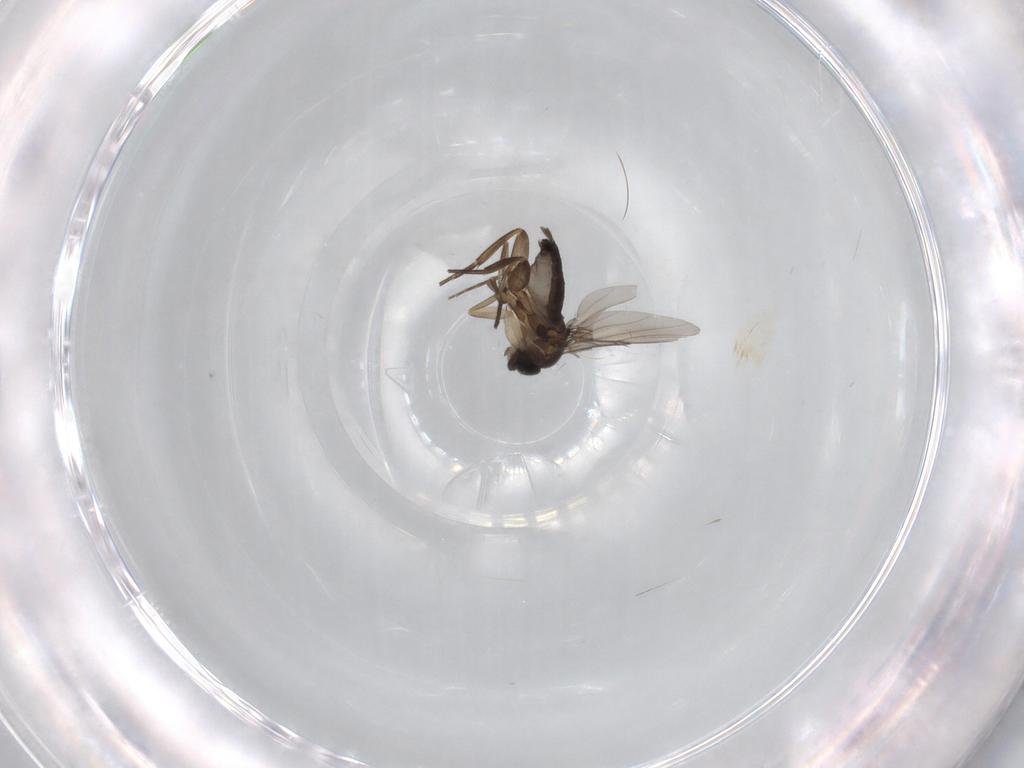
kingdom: Animalia
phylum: Arthropoda
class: Insecta
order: Diptera
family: Phoridae
